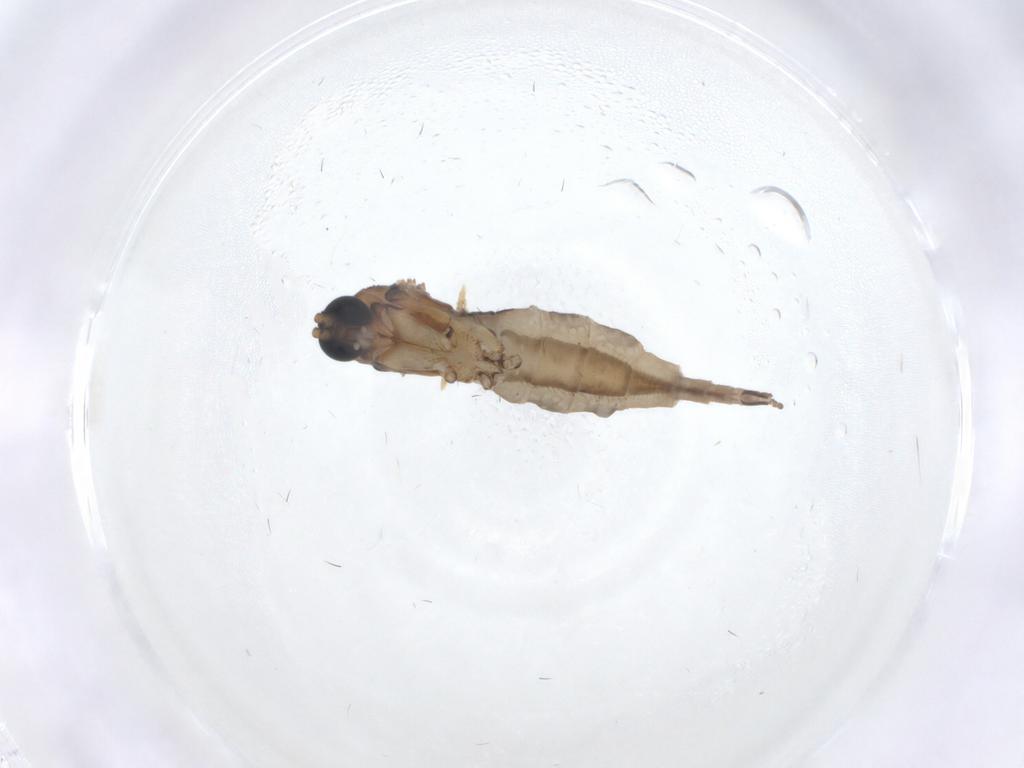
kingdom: Animalia
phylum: Arthropoda
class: Insecta
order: Diptera
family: Sciaridae
